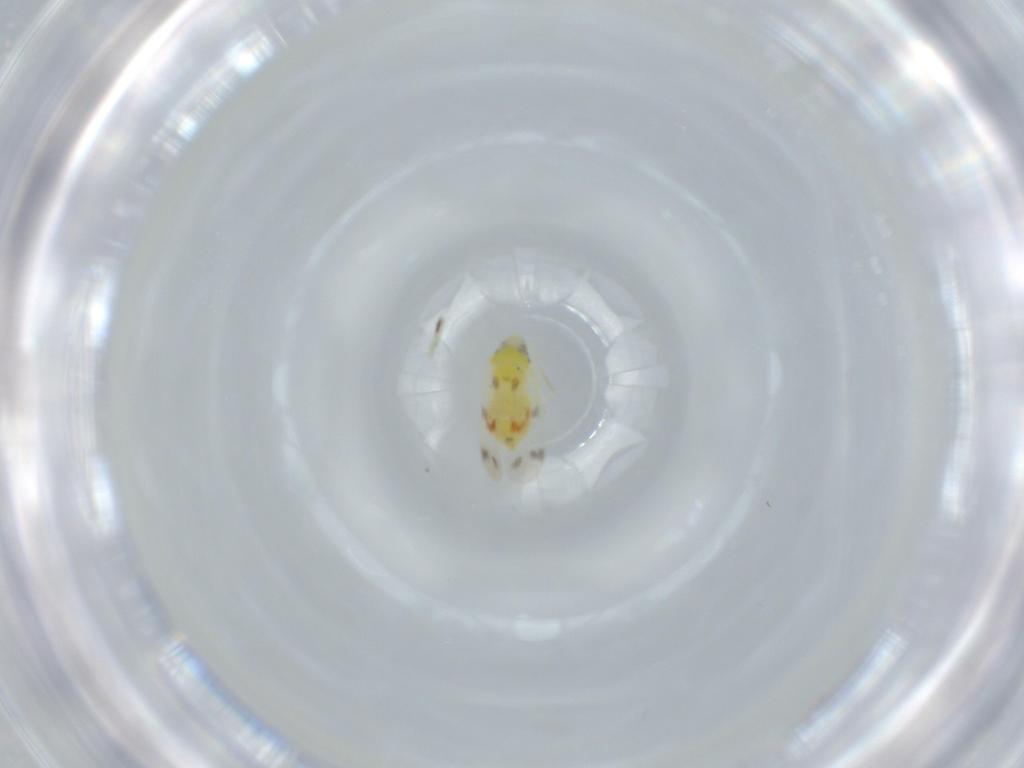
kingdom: Animalia
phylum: Arthropoda
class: Insecta
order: Hemiptera
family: Aleyrodidae
